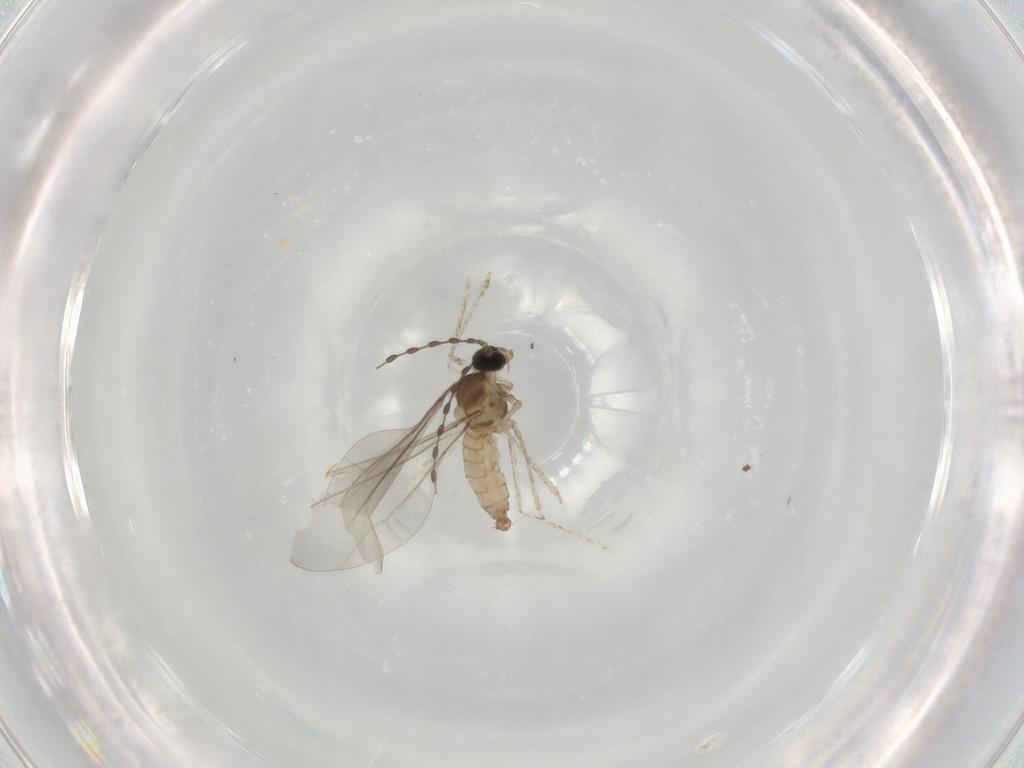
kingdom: Animalia
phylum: Arthropoda
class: Insecta
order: Diptera
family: Cecidomyiidae
